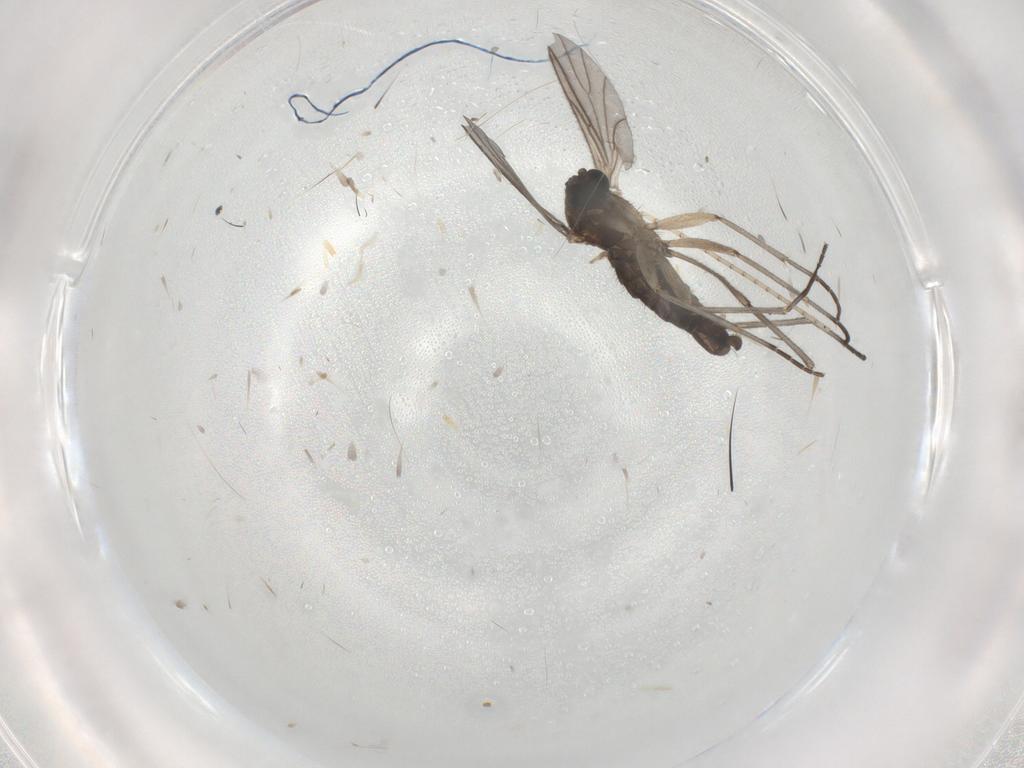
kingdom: Animalia
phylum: Arthropoda
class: Insecta
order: Diptera
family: Sciaridae
